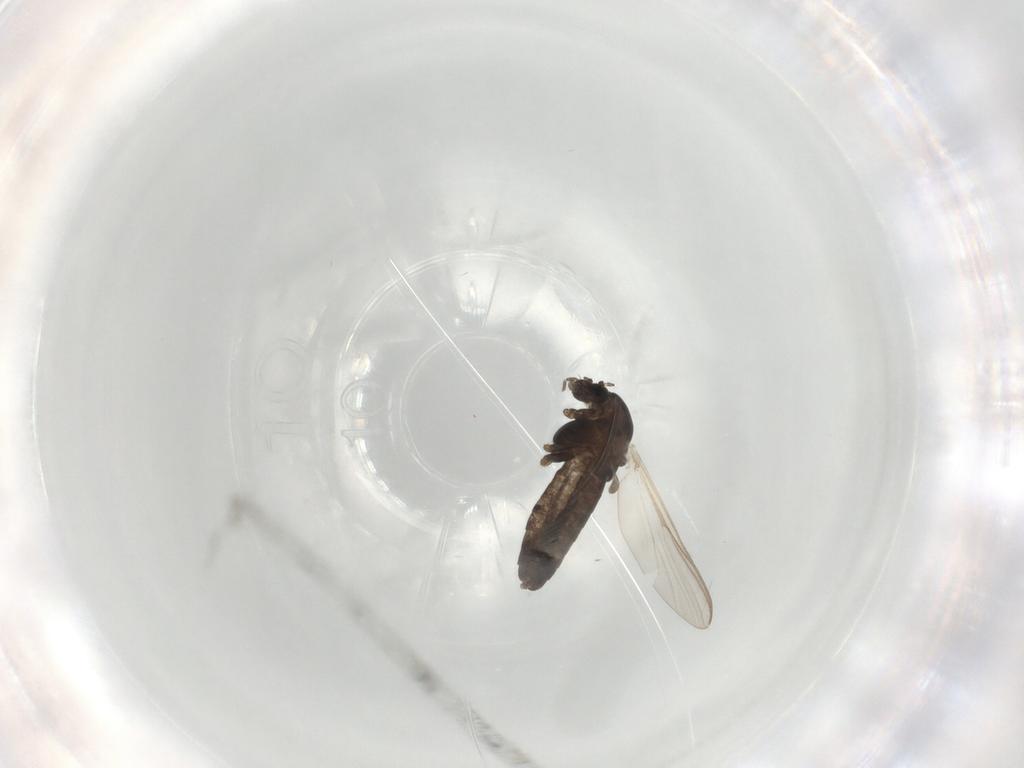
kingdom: Animalia
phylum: Arthropoda
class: Insecta
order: Diptera
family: Chironomidae
